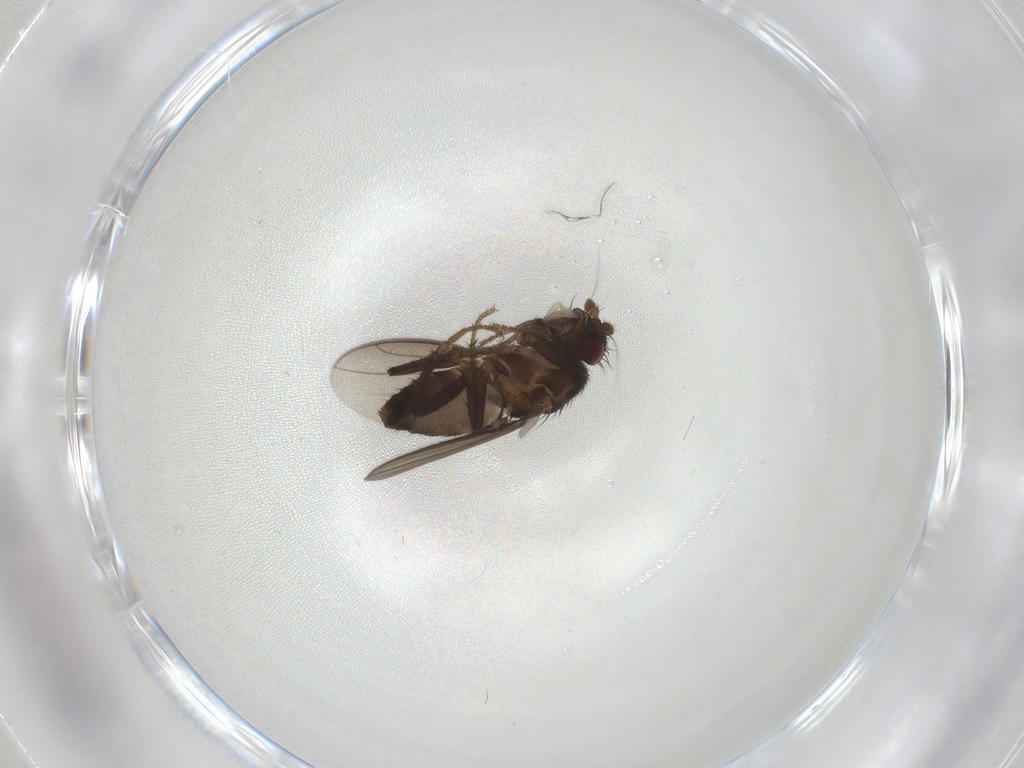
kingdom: Animalia
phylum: Arthropoda
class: Insecta
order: Diptera
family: Sphaeroceridae
